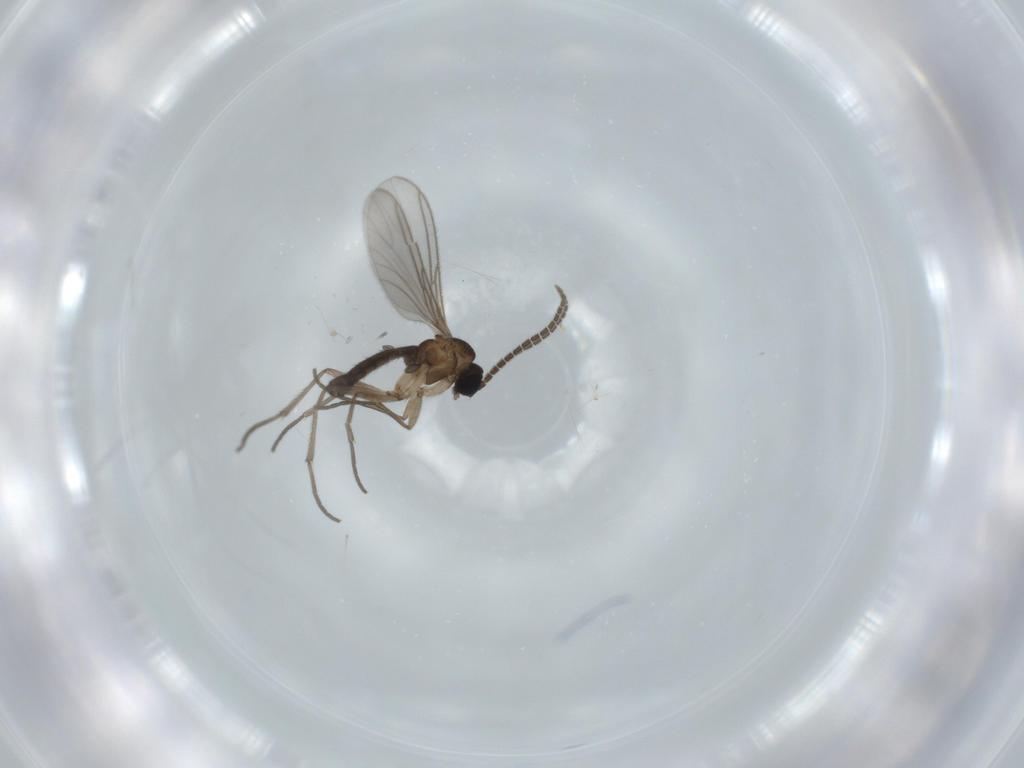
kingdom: Animalia
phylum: Arthropoda
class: Insecta
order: Diptera
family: Sciaridae
